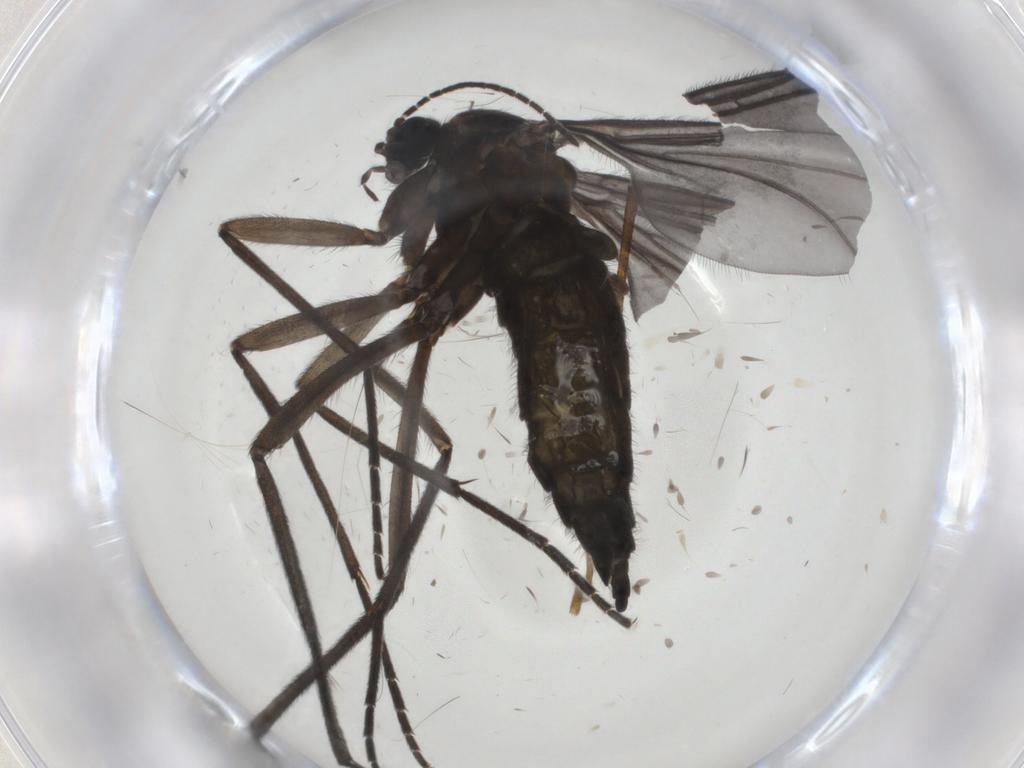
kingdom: Animalia
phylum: Arthropoda
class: Insecta
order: Diptera
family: Sciaridae
